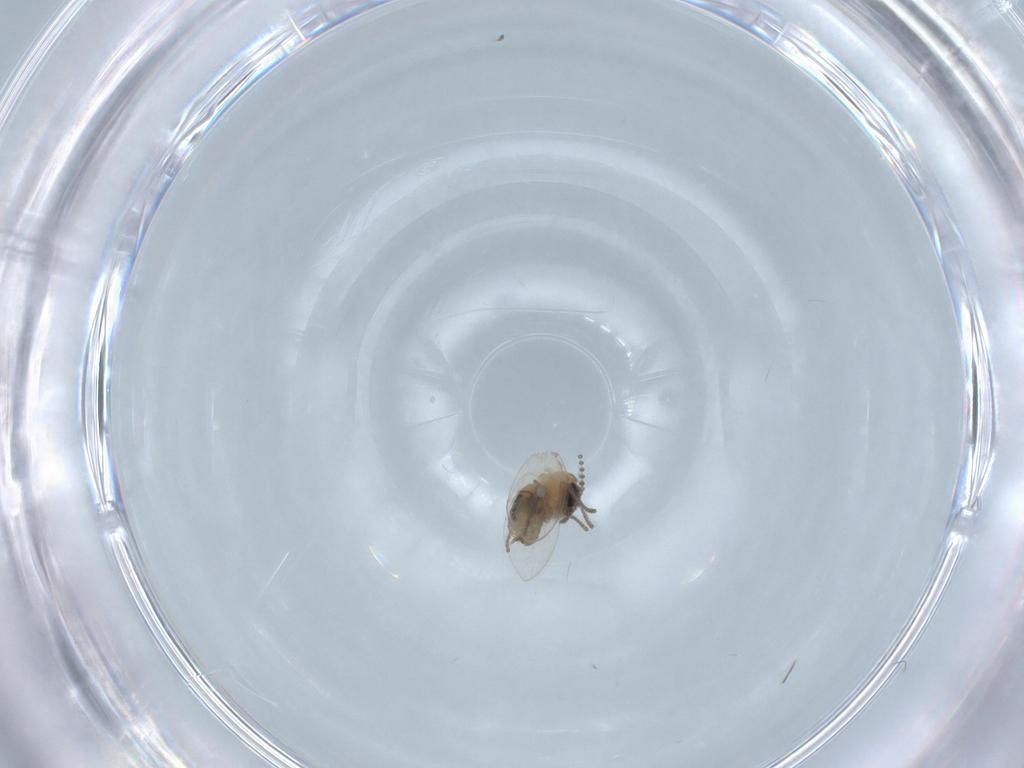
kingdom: Animalia
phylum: Arthropoda
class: Insecta
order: Diptera
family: Psychodidae
